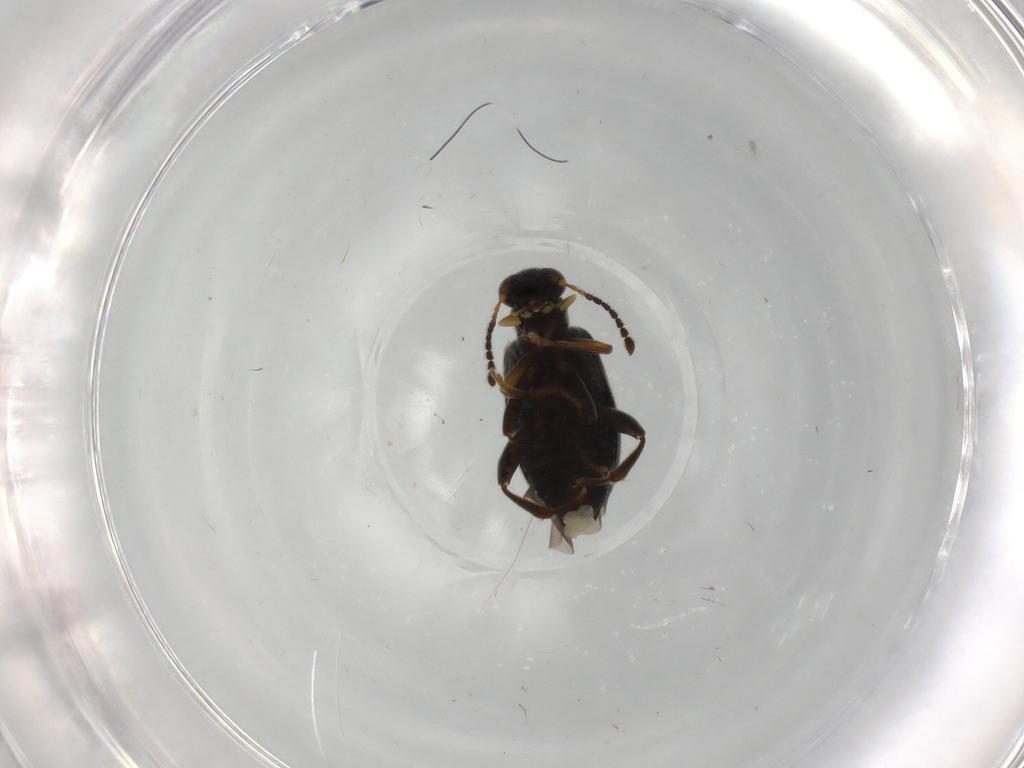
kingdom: Animalia
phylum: Arthropoda
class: Insecta
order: Coleoptera
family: Aderidae
